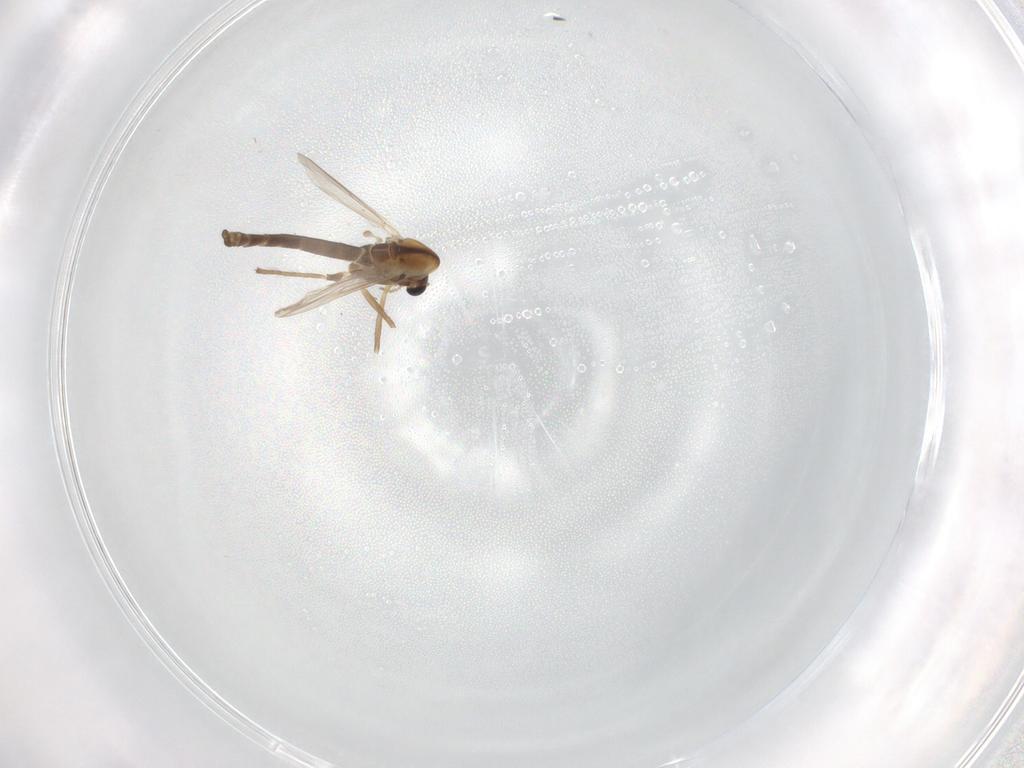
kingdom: Animalia
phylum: Arthropoda
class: Insecta
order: Diptera
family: Chironomidae
